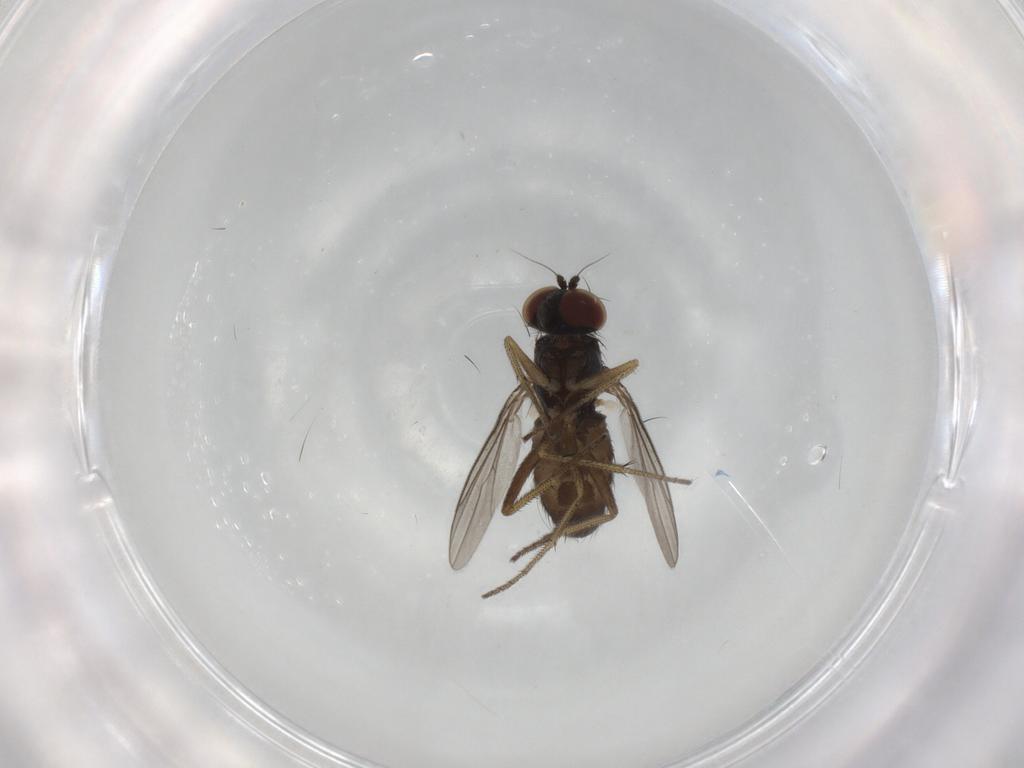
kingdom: Animalia
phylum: Arthropoda
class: Insecta
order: Diptera
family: Dolichopodidae
